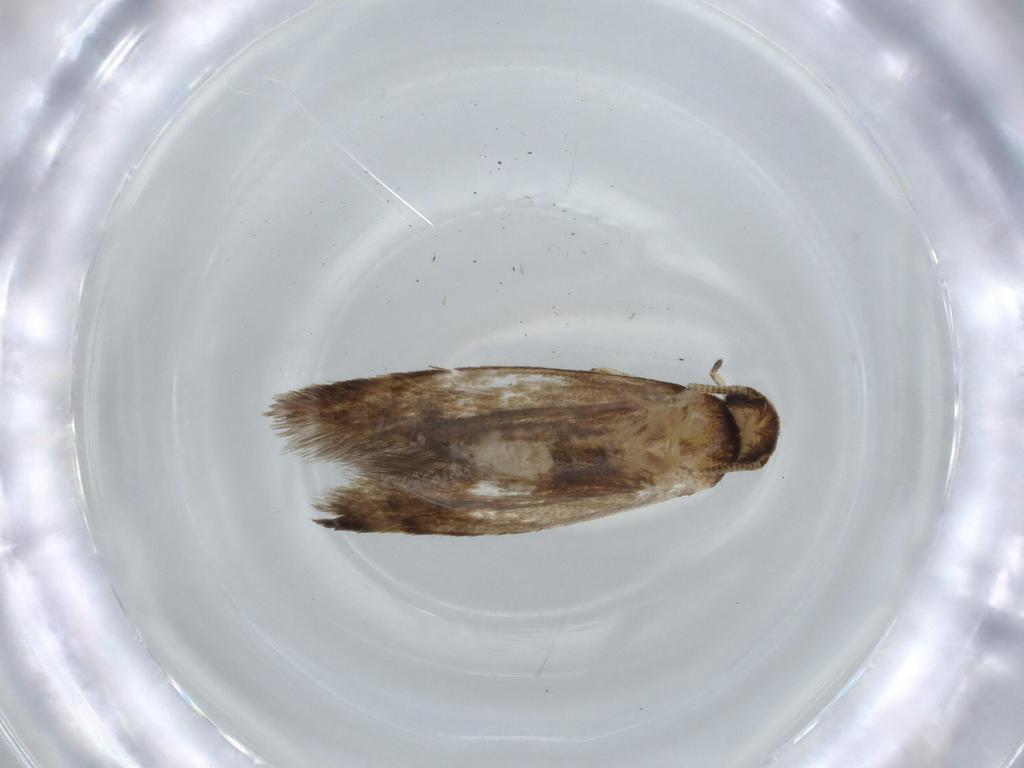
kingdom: Animalia
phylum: Arthropoda
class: Insecta
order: Lepidoptera
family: Tineidae
